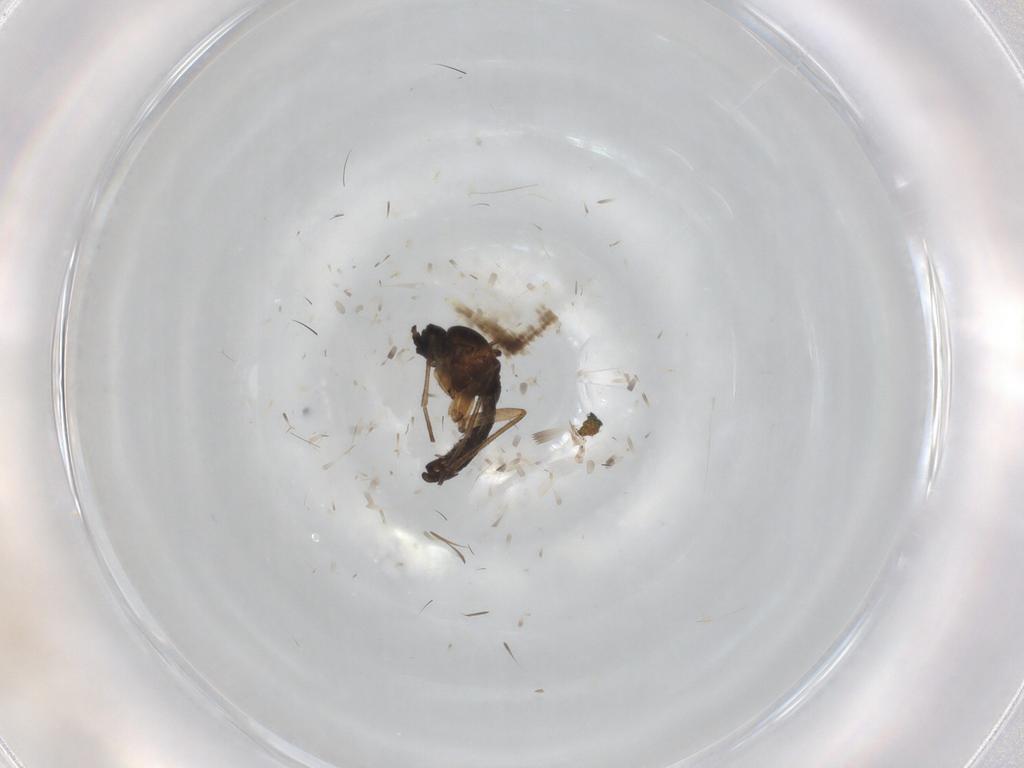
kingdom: Animalia
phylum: Arthropoda
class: Insecta
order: Diptera
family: Sciaridae
